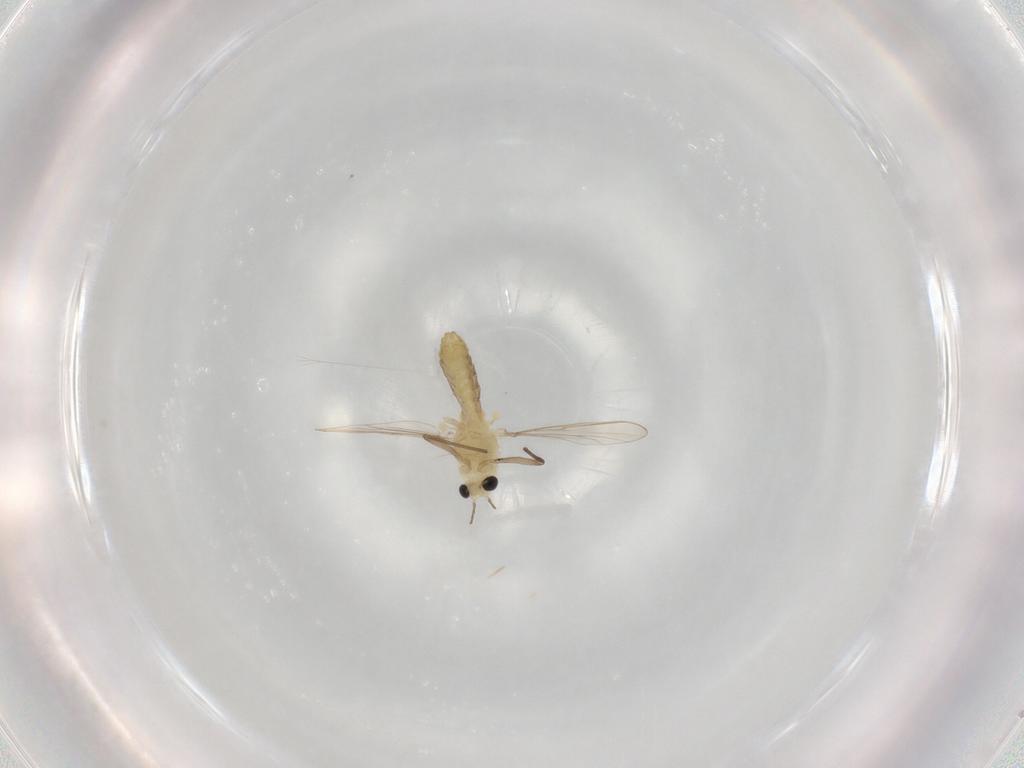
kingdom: Animalia
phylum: Arthropoda
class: Insecta
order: Diptera
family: Chironomidae
